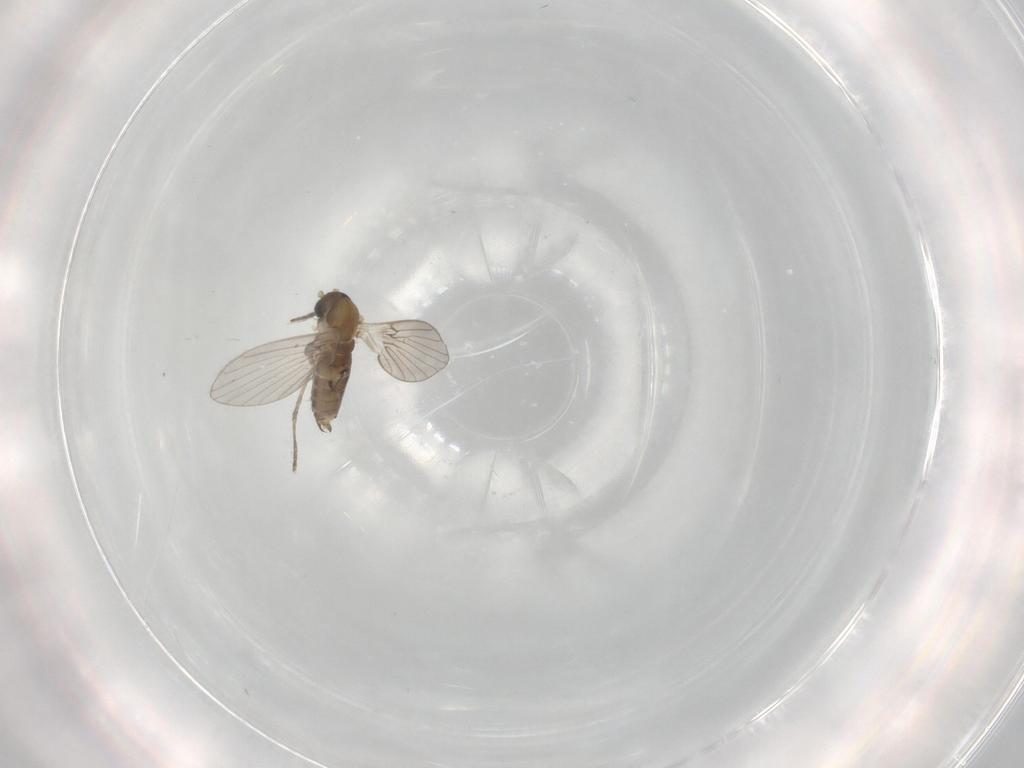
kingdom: Animalia
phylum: Arthropoda
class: Insecta
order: Diptera
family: Psychodidae
